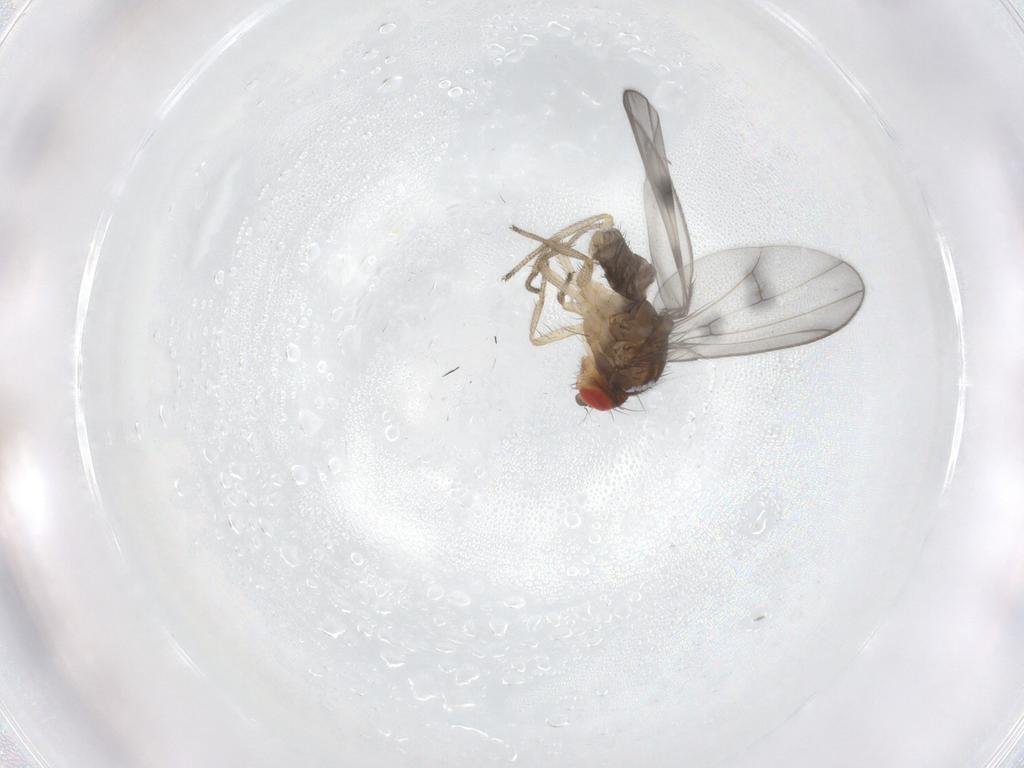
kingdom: Animalia
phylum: Arthropoda
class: Insecta
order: Diptera
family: Drosophilidae
